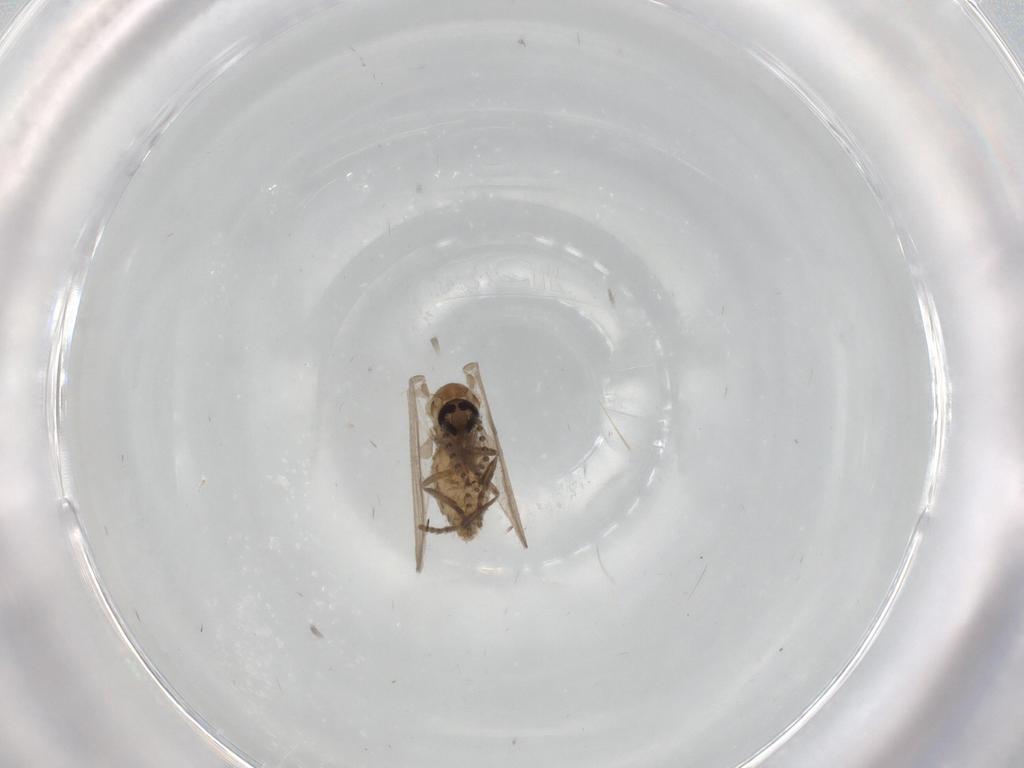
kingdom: Animalia
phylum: Arthropoda
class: Insecta
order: Diptera
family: Psychodidae
